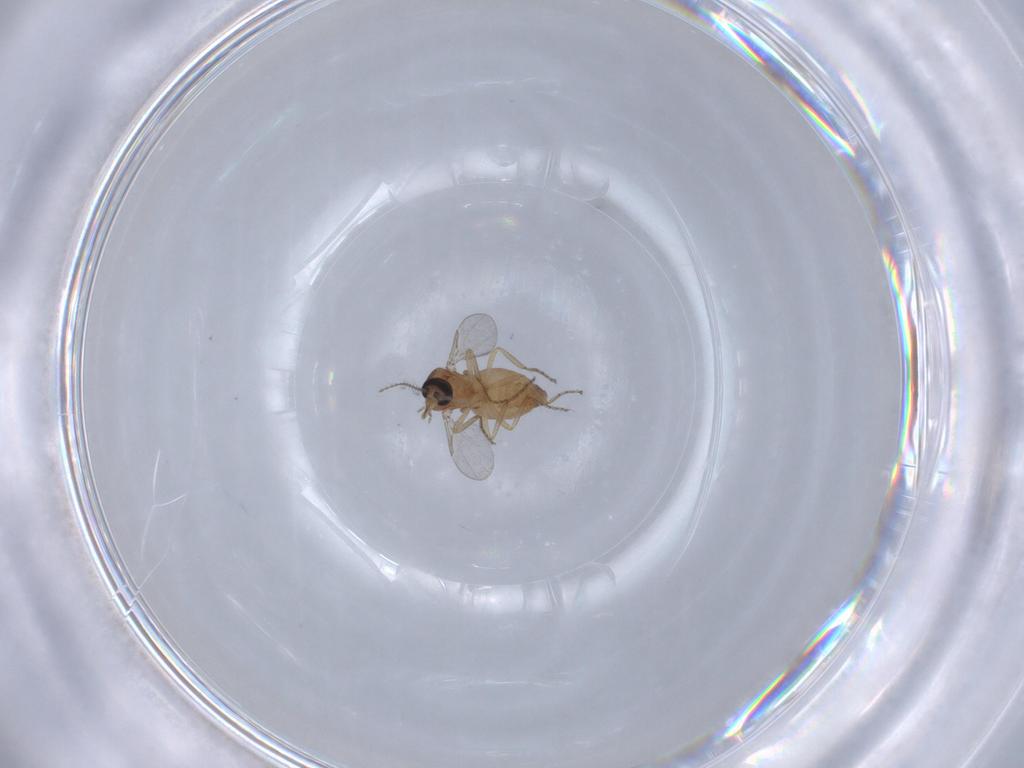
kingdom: Animalia
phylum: Arthropoda
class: Insecta
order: Diptera
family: Ceratopogonidae
